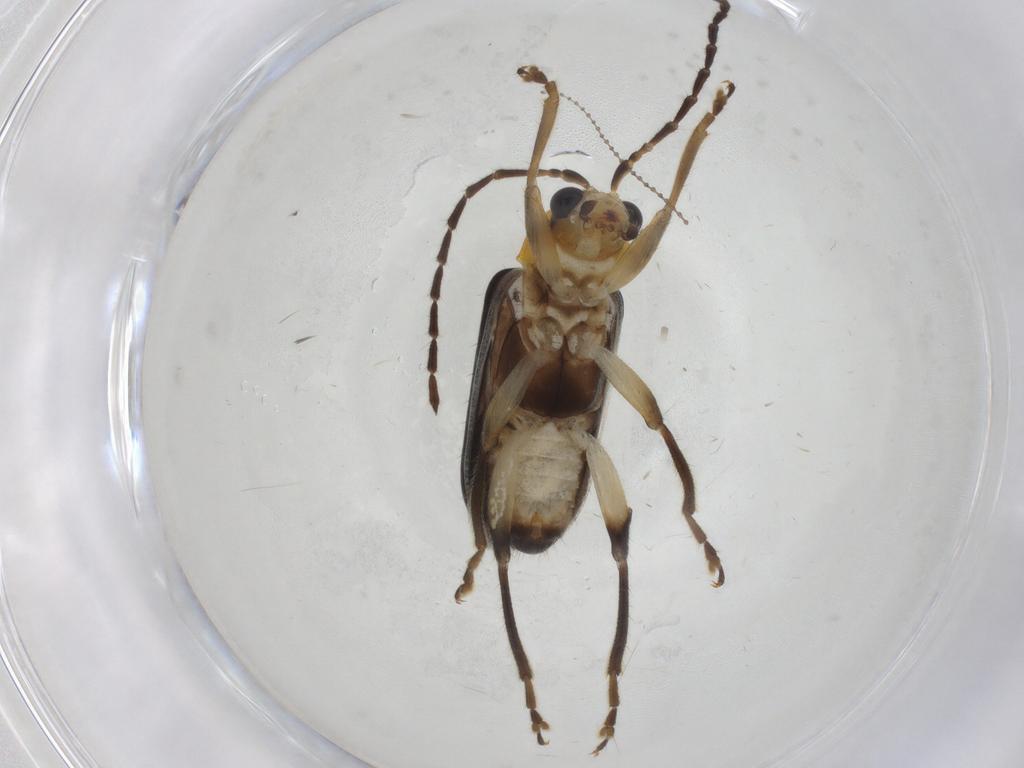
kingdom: Animalia
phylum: Arthropoda
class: Insecta
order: Coleoptera
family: Chrysomelidae
